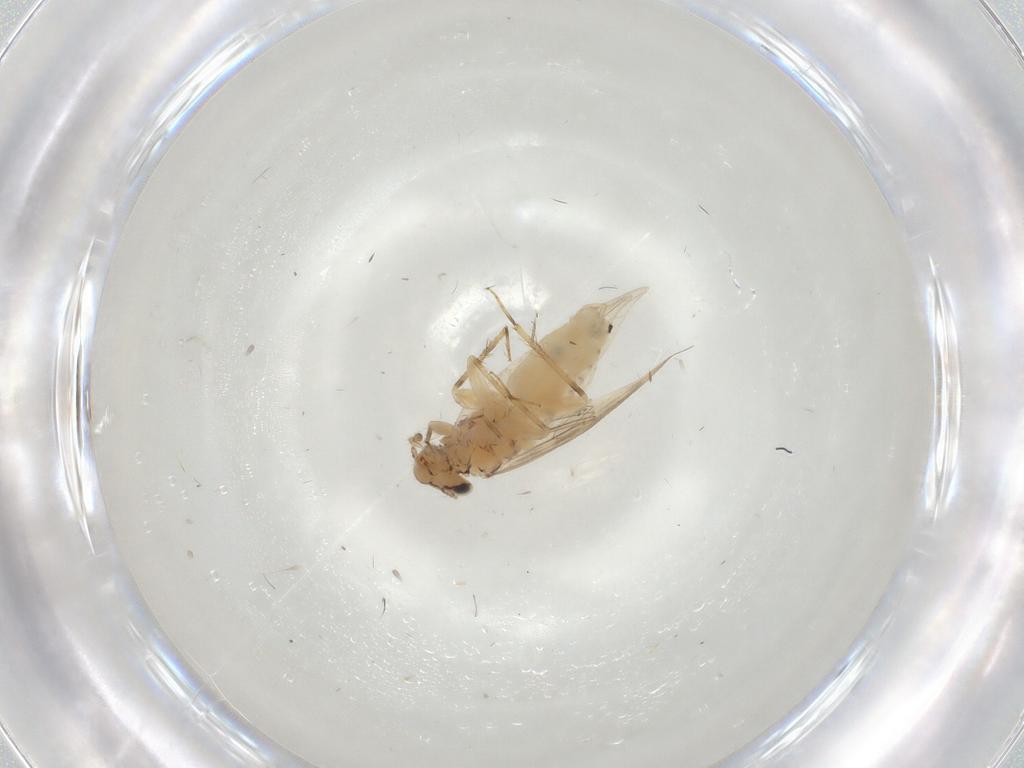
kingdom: Animalia
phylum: Arthropoda
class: Insecta
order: Psocodea
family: Lepidopsocidae
